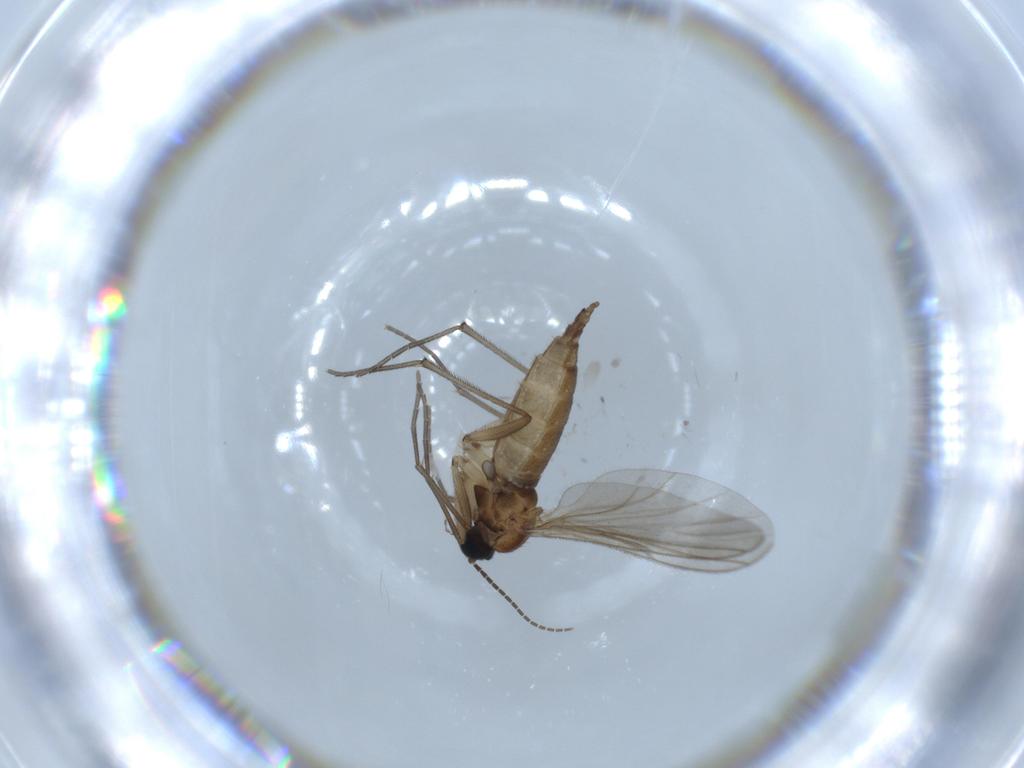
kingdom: Animalia
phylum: Arthropoda
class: Insecta
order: Diptera
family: Sciaridae
